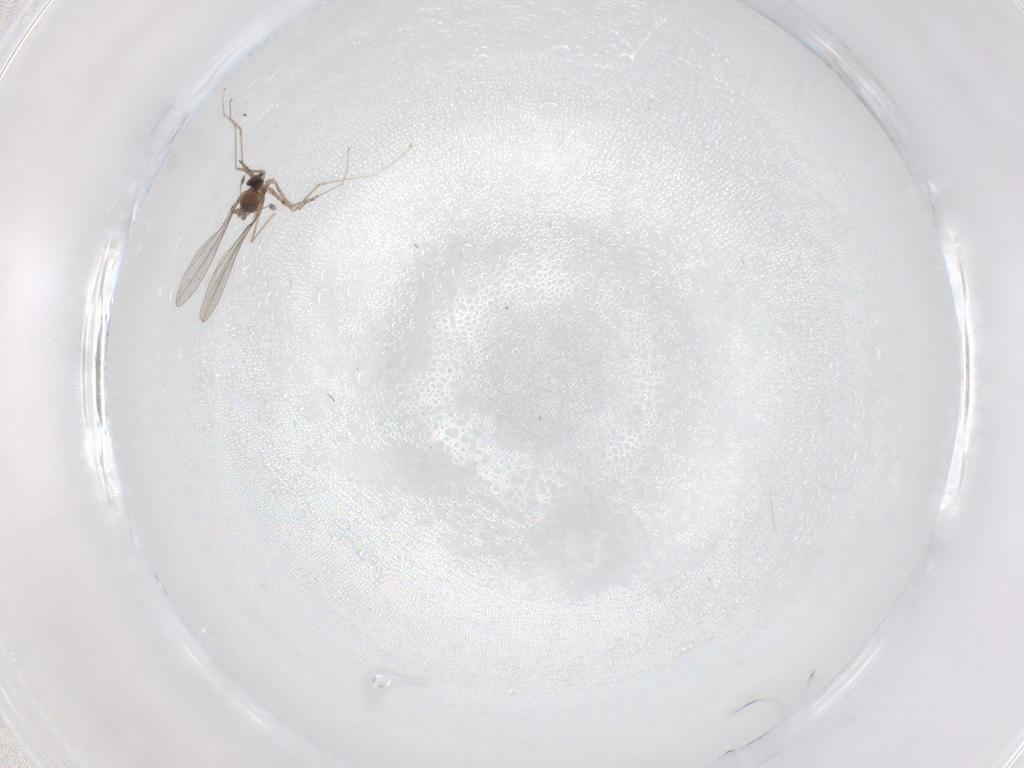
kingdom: Animalia
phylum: Arthropoda
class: Insecta
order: Diptera
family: Cecidomyiidae
